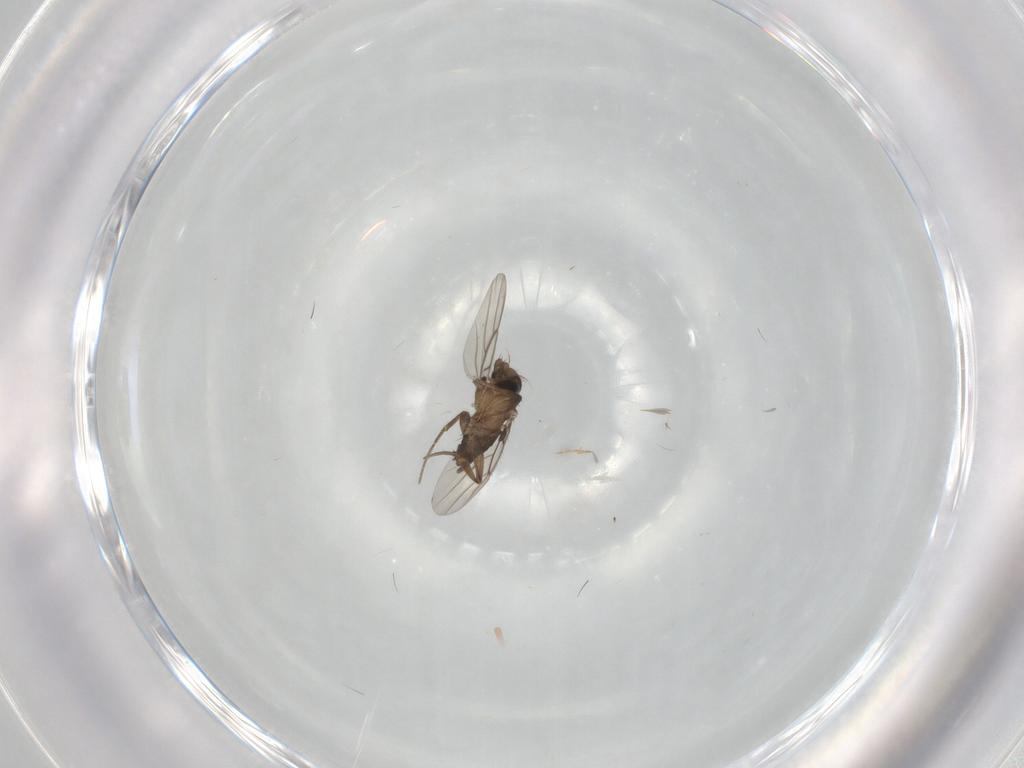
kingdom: Animalia
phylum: Arthropoda
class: Insecta
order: Diptera
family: Phoridae
